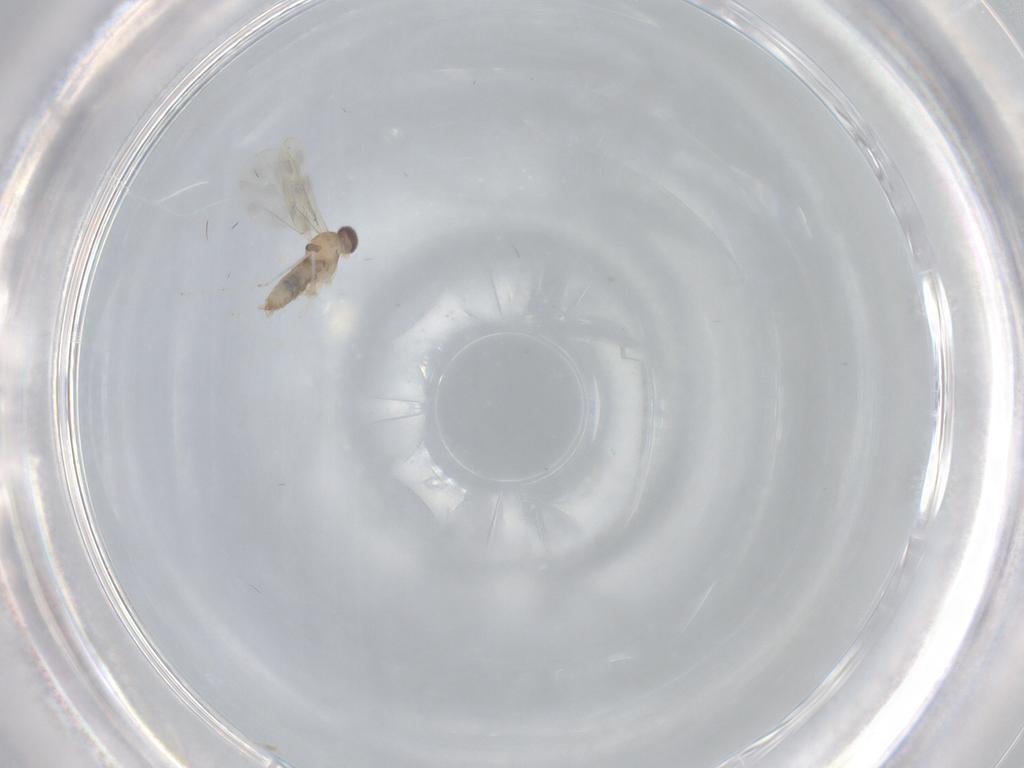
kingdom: Animalia
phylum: Arthropoda
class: Insecta
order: Diptera
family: Cecidomyiidae
